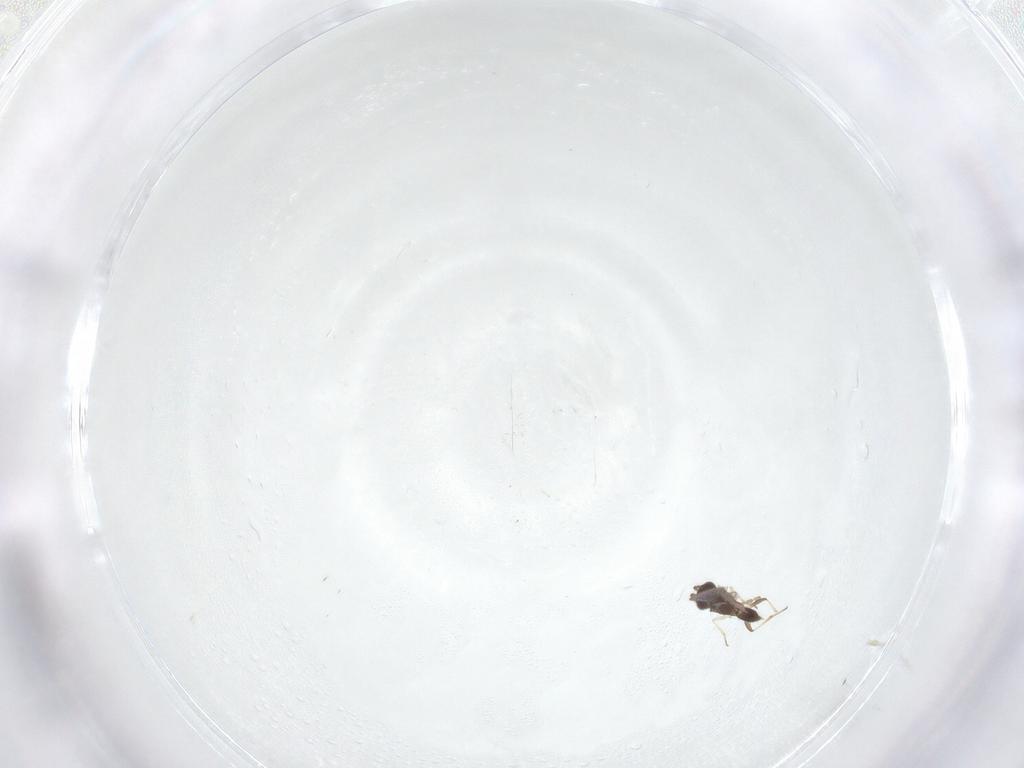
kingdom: Animalia
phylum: Arthropoda
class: Insecta
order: Hymenoptera
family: Eulophidae
